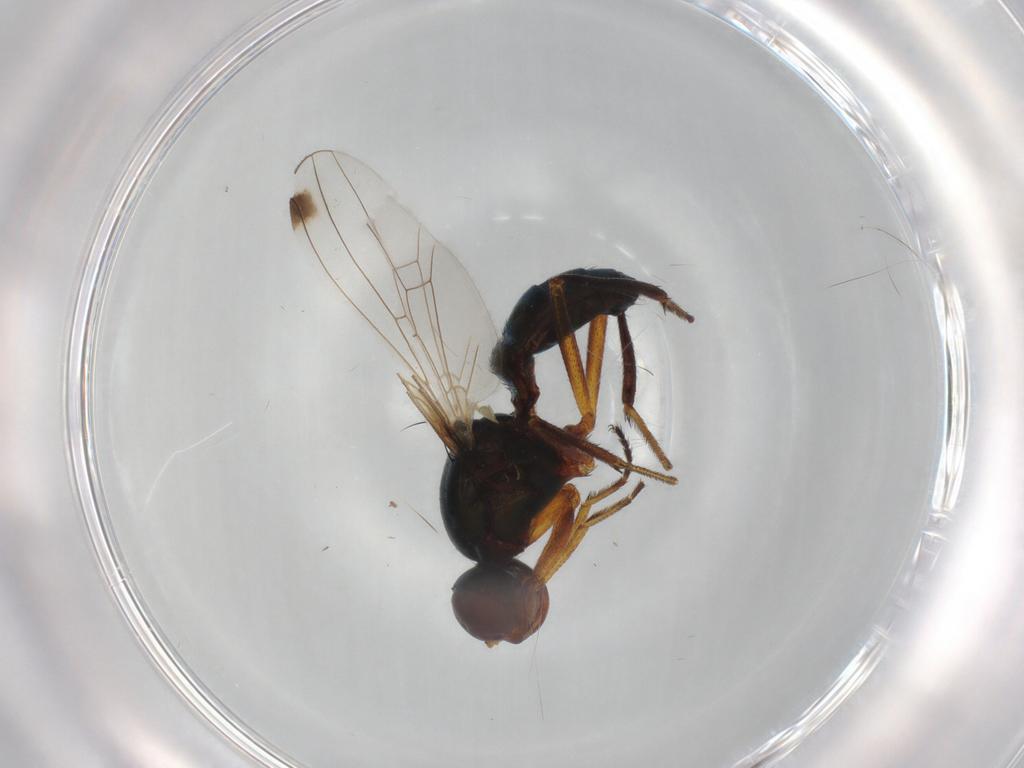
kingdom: Animalia
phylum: Arthropoda
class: Insecta
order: Diptera
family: Sepsidae
